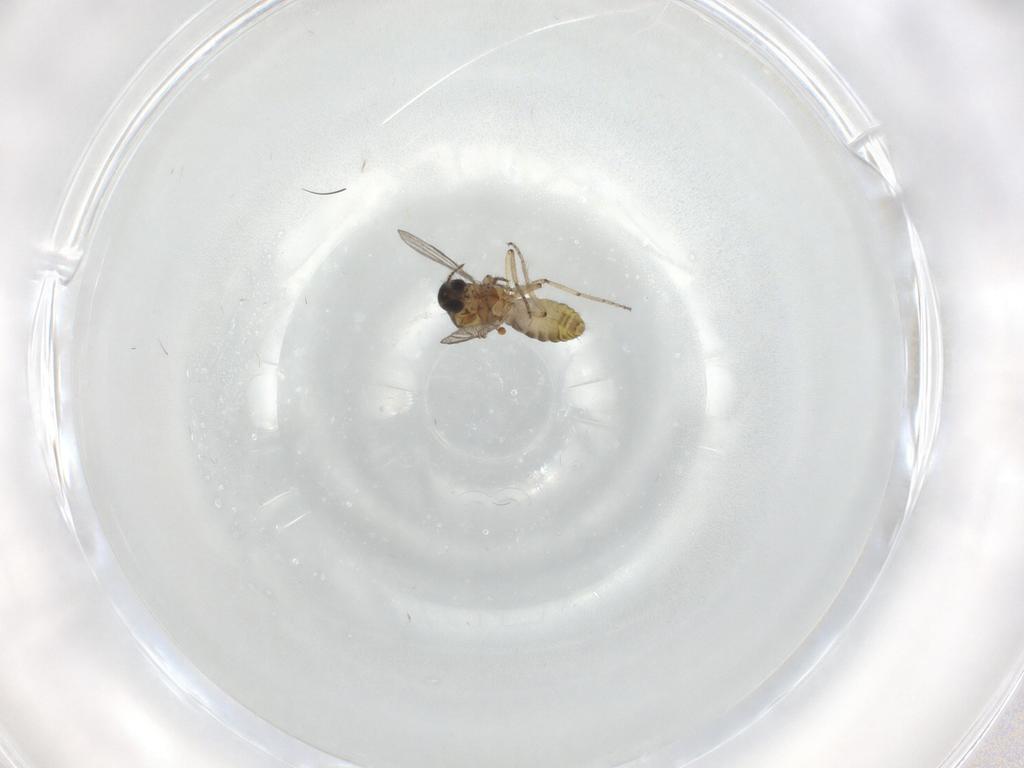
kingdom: Animalia
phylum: Arthropoda
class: Insecta
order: Diptera
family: Ceratopogonidae
